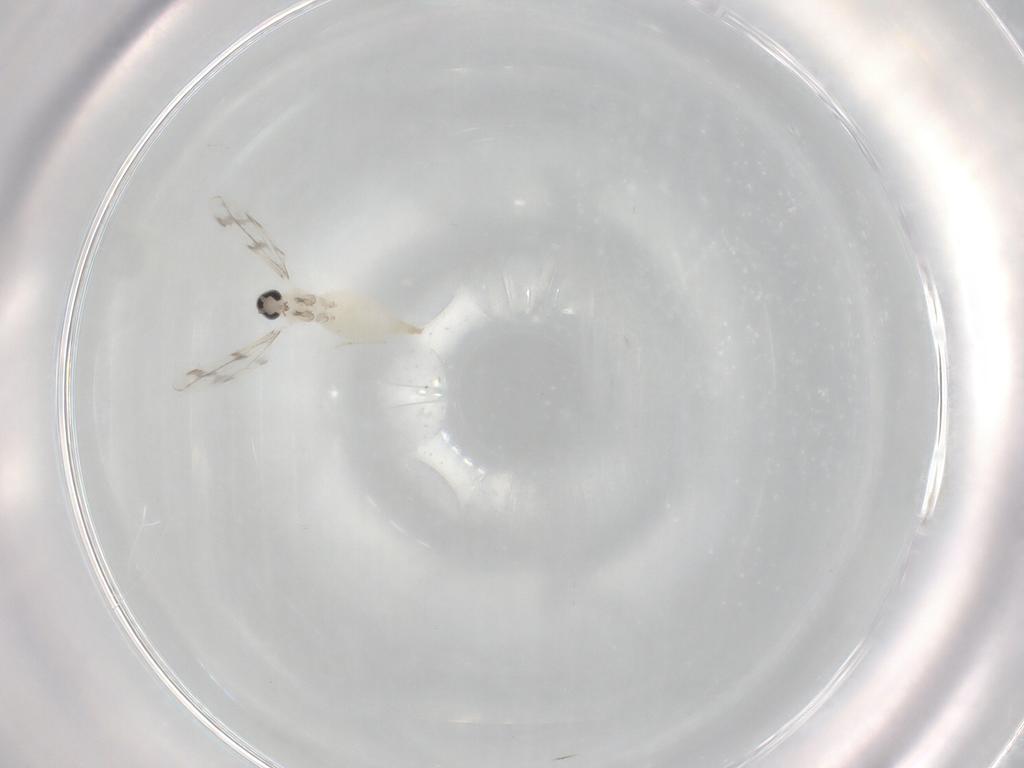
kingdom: Animalia
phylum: Arthropoda
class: Insecta
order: Diptera
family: Cecidomyiidae
